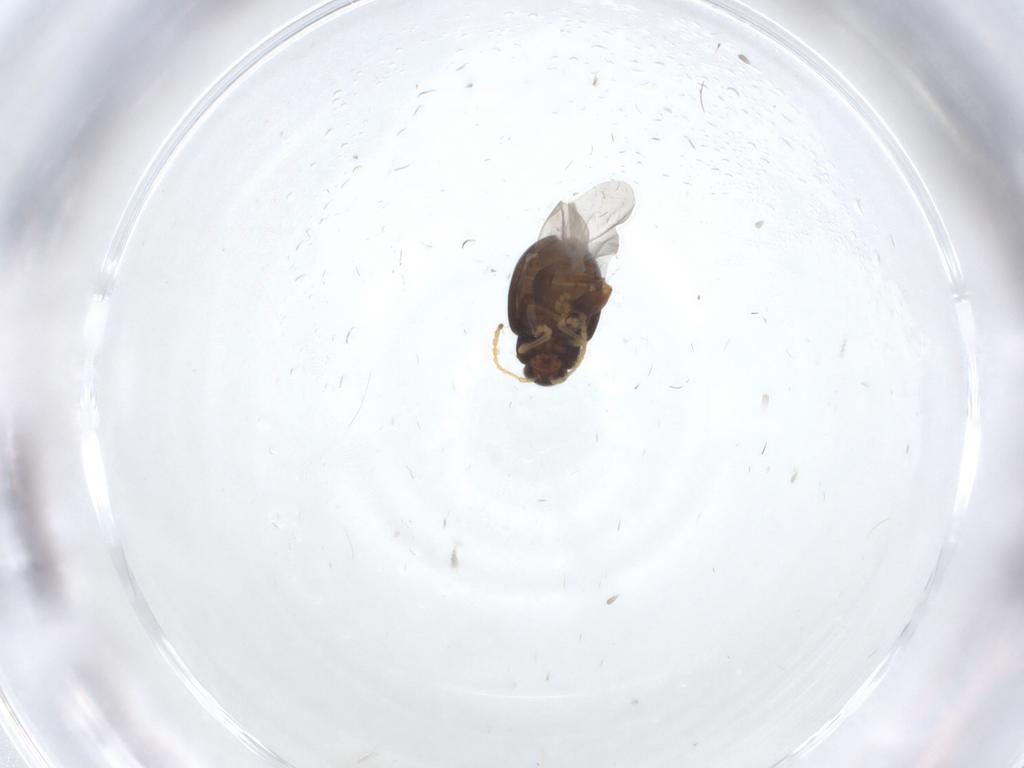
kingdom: Animalia
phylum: Arthropoda
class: Insecta
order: Coleoptera
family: Chrysomelidae
